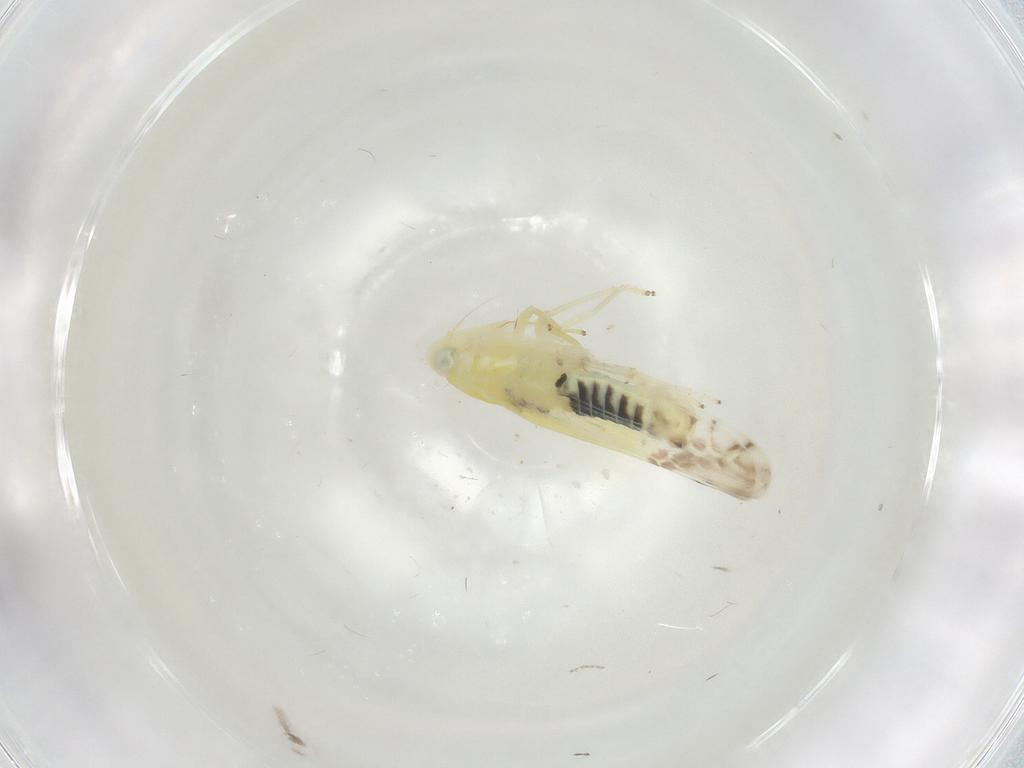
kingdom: Animalia
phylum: Arthropoda
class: Insecta
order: Hemiptera
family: Cicadellidae
